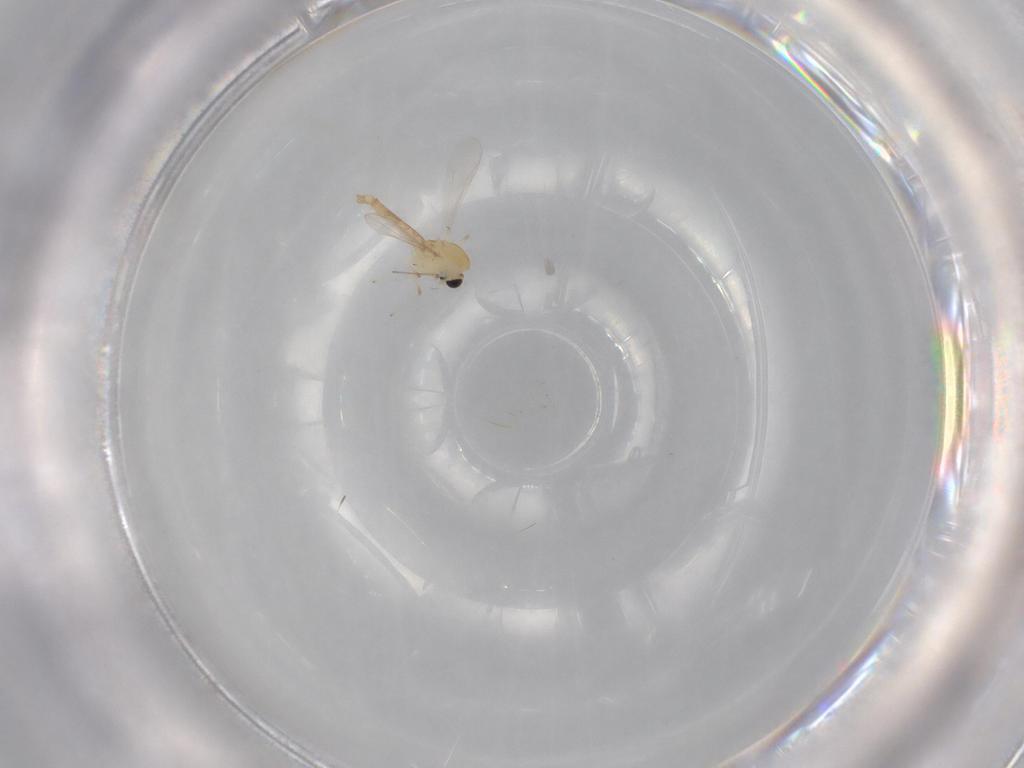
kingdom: Animalia
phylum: Arthropoda
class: Insecta
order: Diptera
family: Chironomidae
